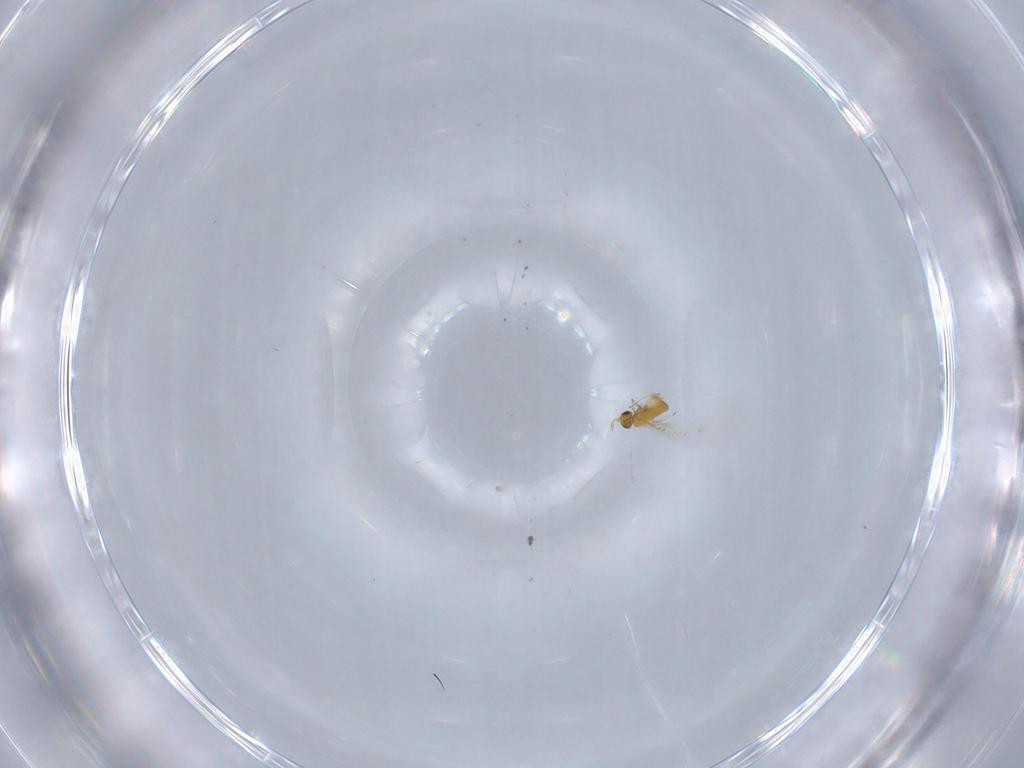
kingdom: Animalia
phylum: Arthropoda
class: Insecta
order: Hymenoptera
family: Trichogrammatidae
